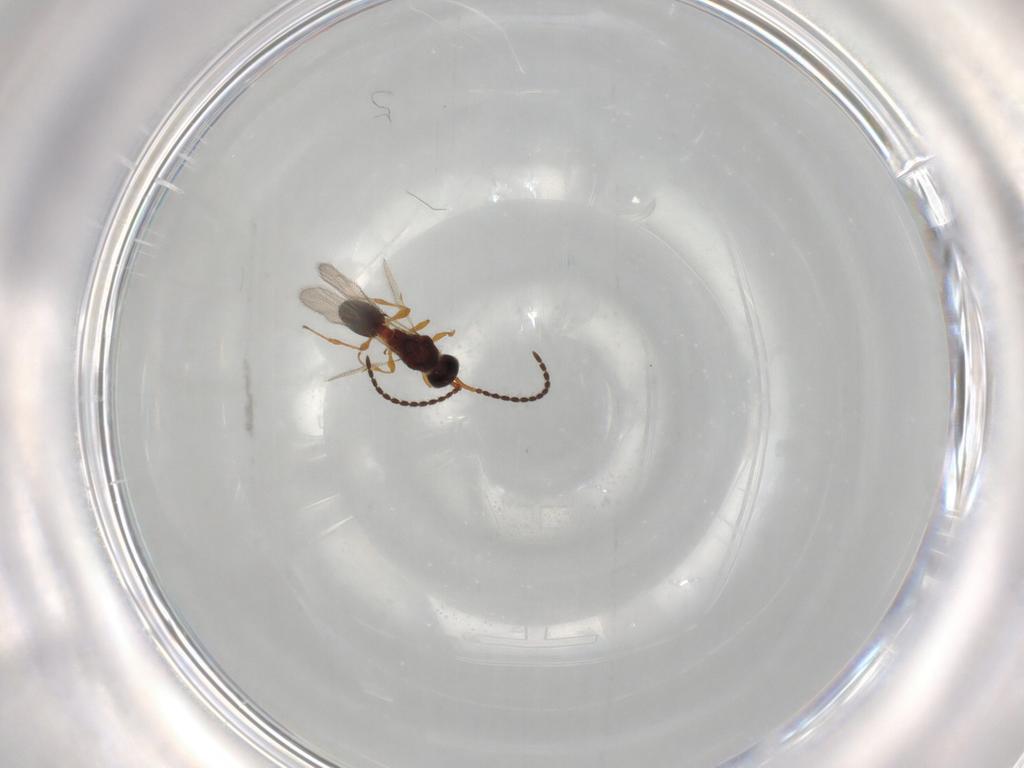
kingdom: Animalia
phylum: Arthropoda
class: Insecta
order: Hymenoptera
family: Diapriidae
